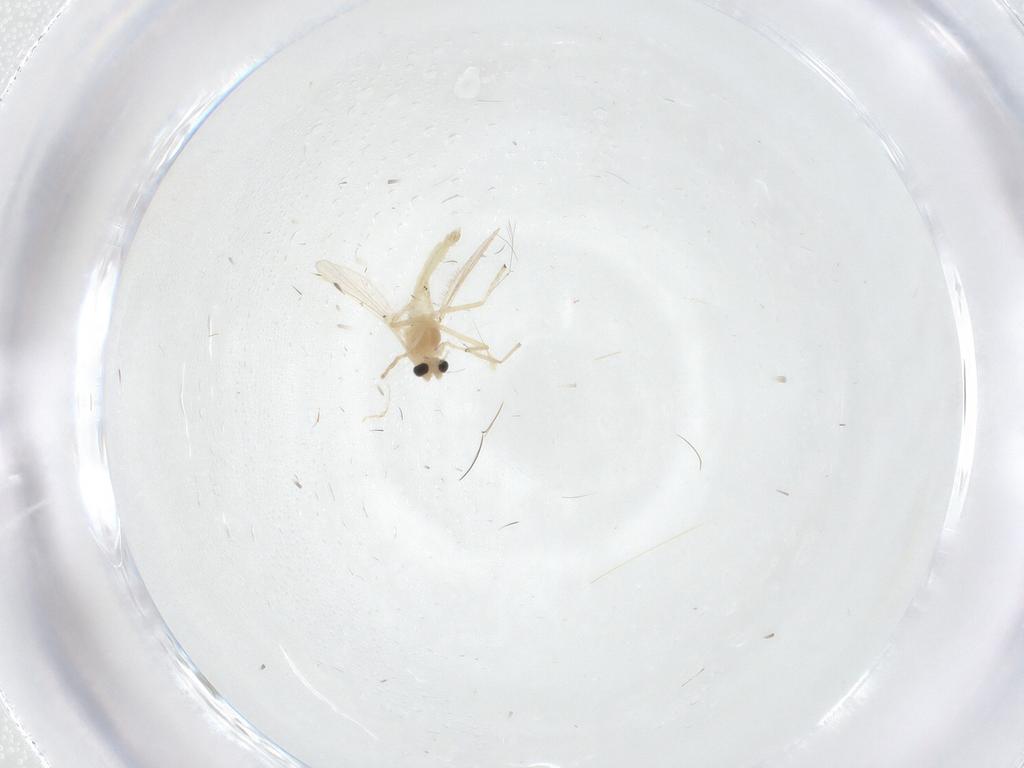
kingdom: Animalia
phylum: Arthropoda
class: Insecta
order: Diptera
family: Chironomidae
